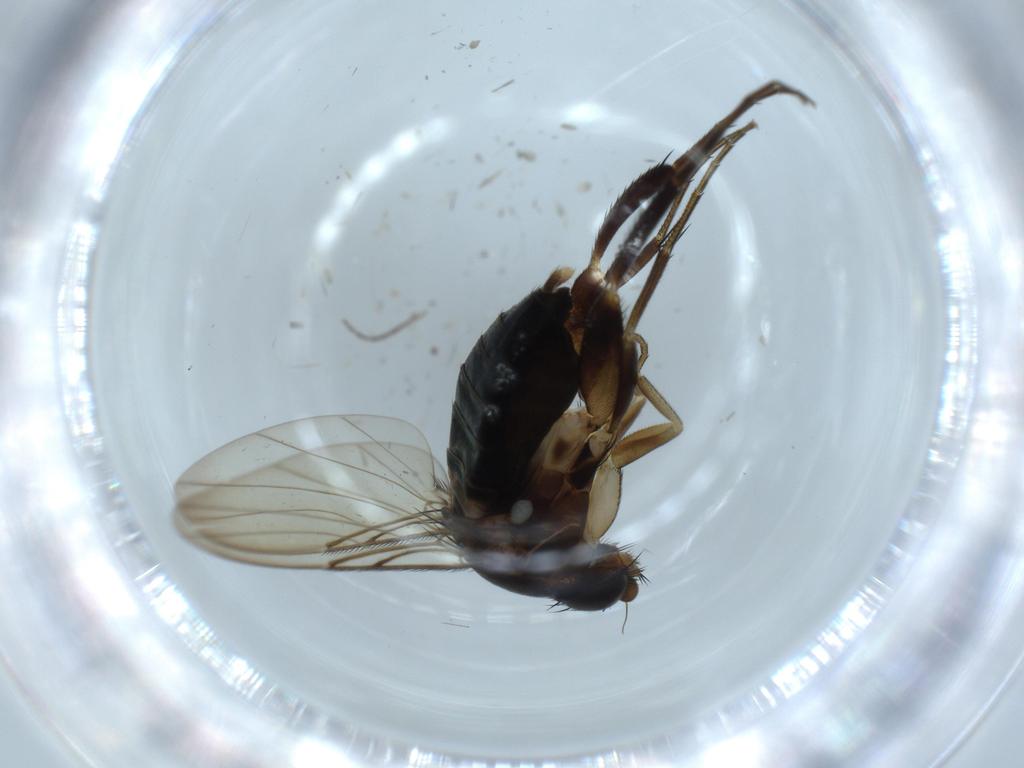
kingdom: Animalia
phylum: Arthropoda
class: Insecta
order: Diptera
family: Phoridae
